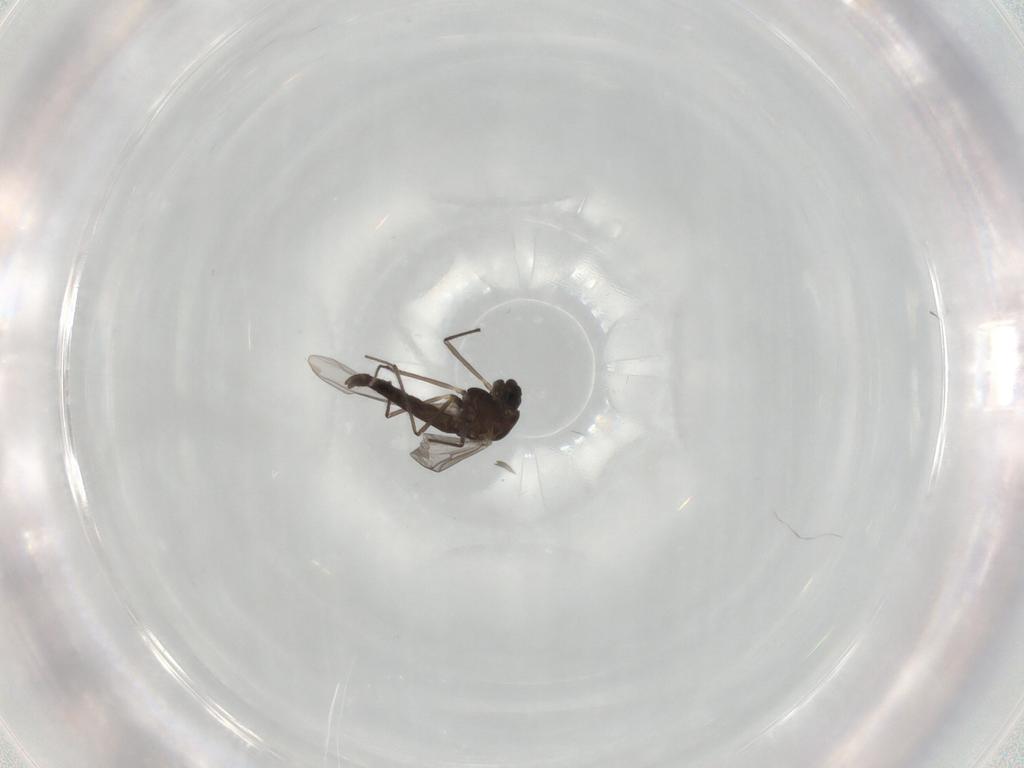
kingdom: Animalia
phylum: Arthropoda
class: Insecta
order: Diptera
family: Chironomidae
